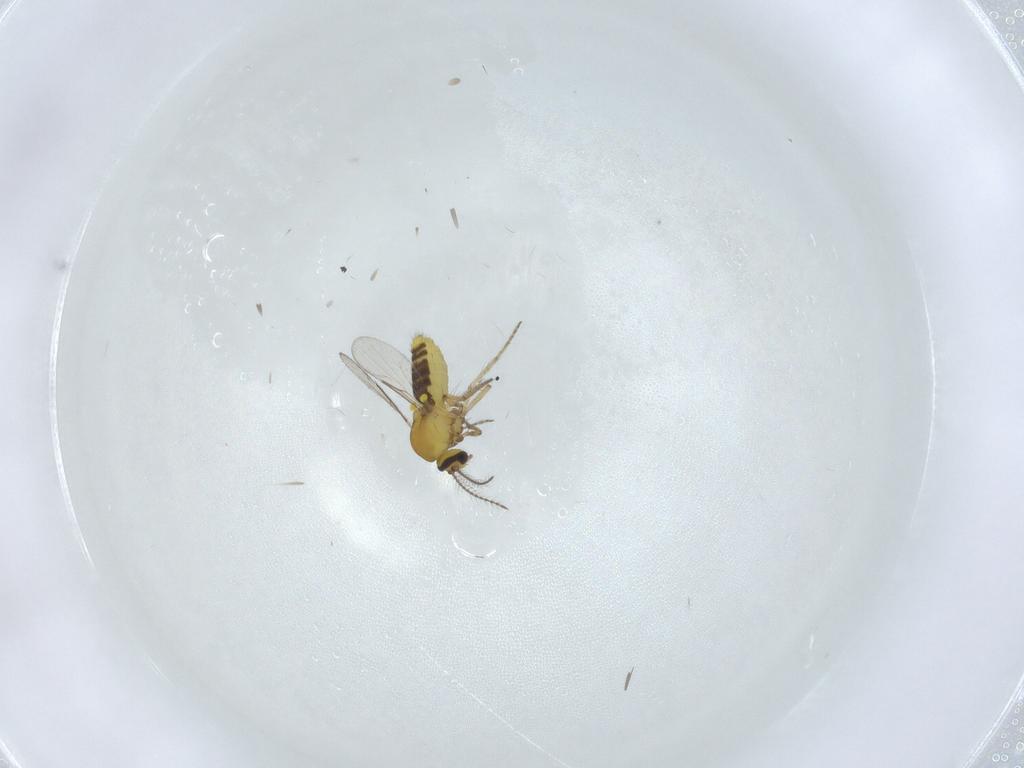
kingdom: Animalia
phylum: Arthropoda
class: Insecta
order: Diptera
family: Ceratopogonidae
